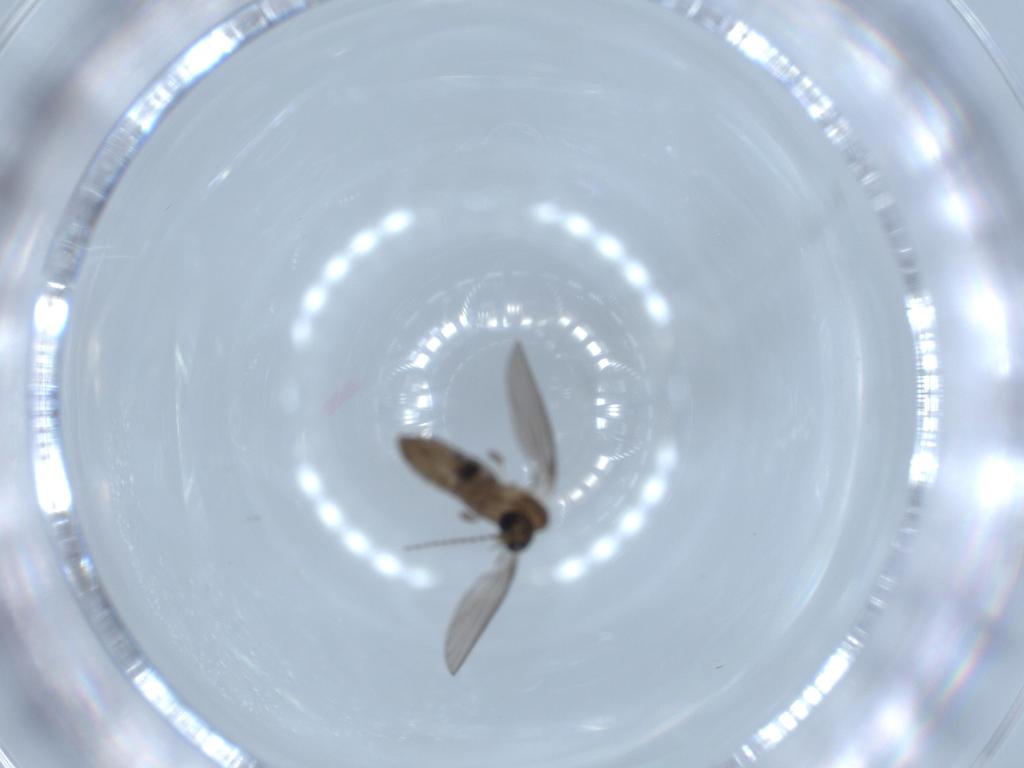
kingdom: Animalia
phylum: Arthropoda
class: Insecta
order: Diptera
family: Psychodidae
